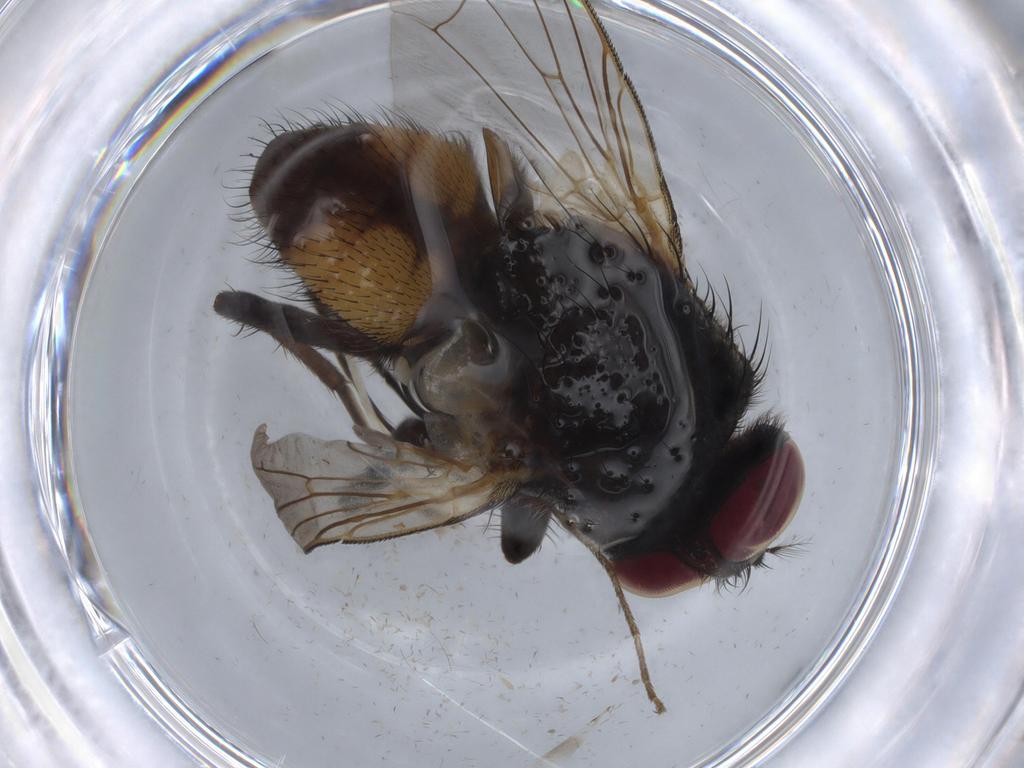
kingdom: Animalia
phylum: Arthropoda
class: Insecta
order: Diptera
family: Muscidae
